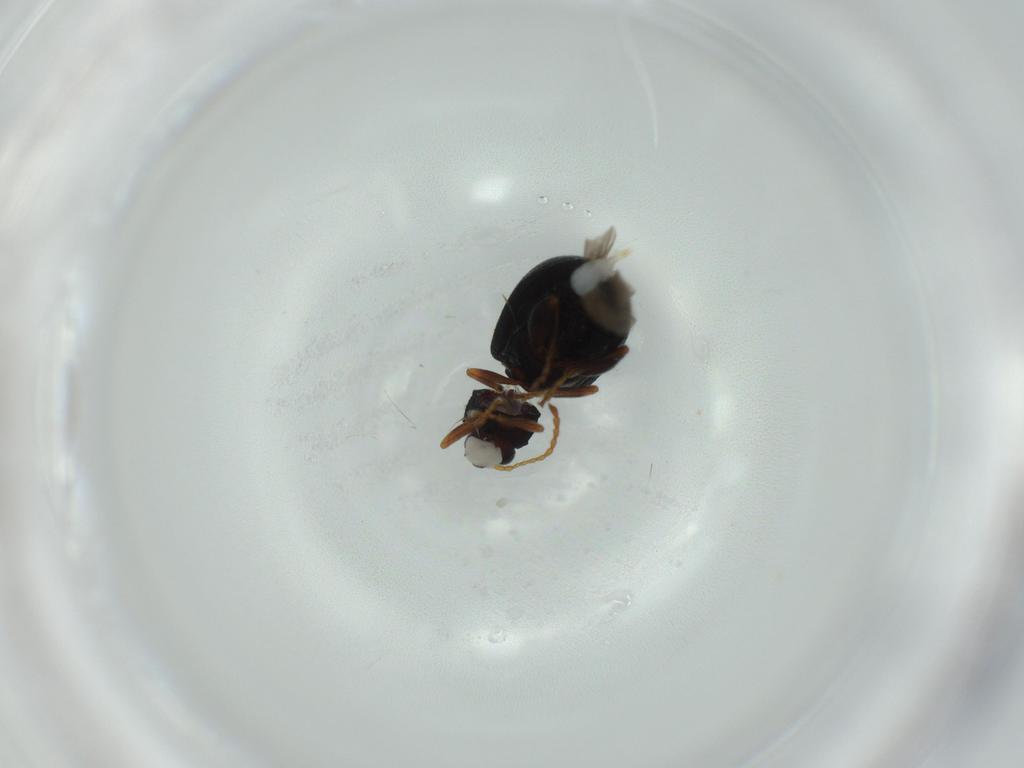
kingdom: Animalia
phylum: Arthropoda
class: Insecta
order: Coleoptera
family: Chrysomelidae
